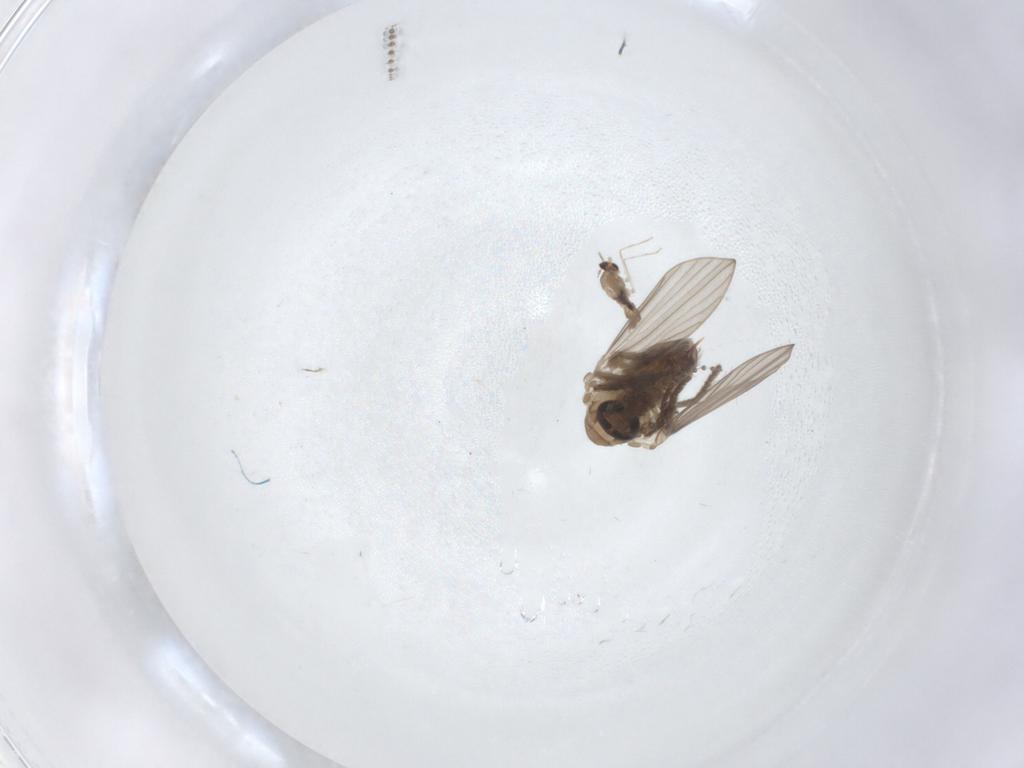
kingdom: Animalia
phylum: Arthropoda
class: Insecta
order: Diptera
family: Psychodidae
